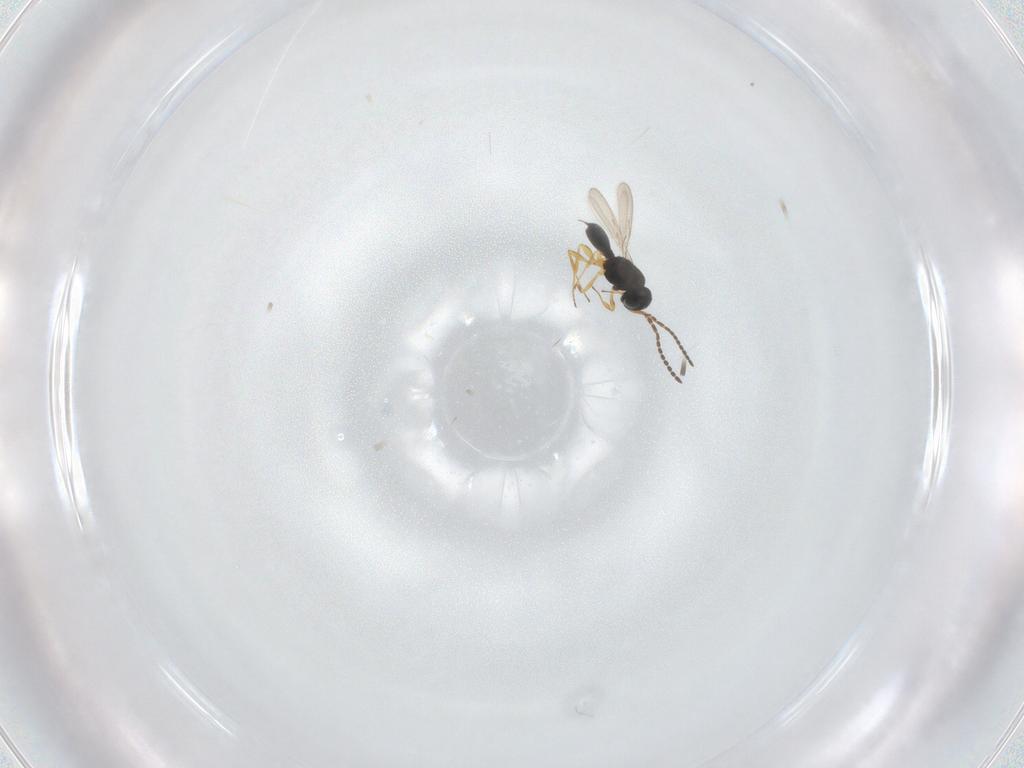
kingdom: Animalia
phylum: Arthropoda
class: Insecta
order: Hymenoptera
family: Scelionidae
